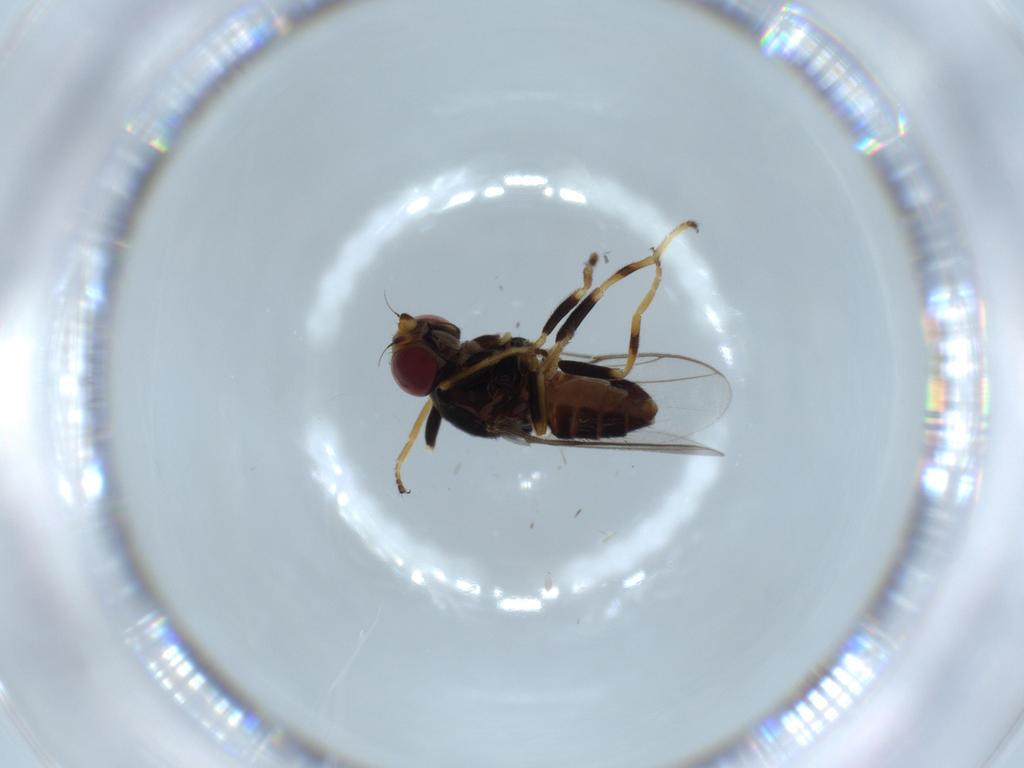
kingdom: Animalia
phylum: Arthropoda
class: Insecta
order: Diptera
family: Chloropidae
